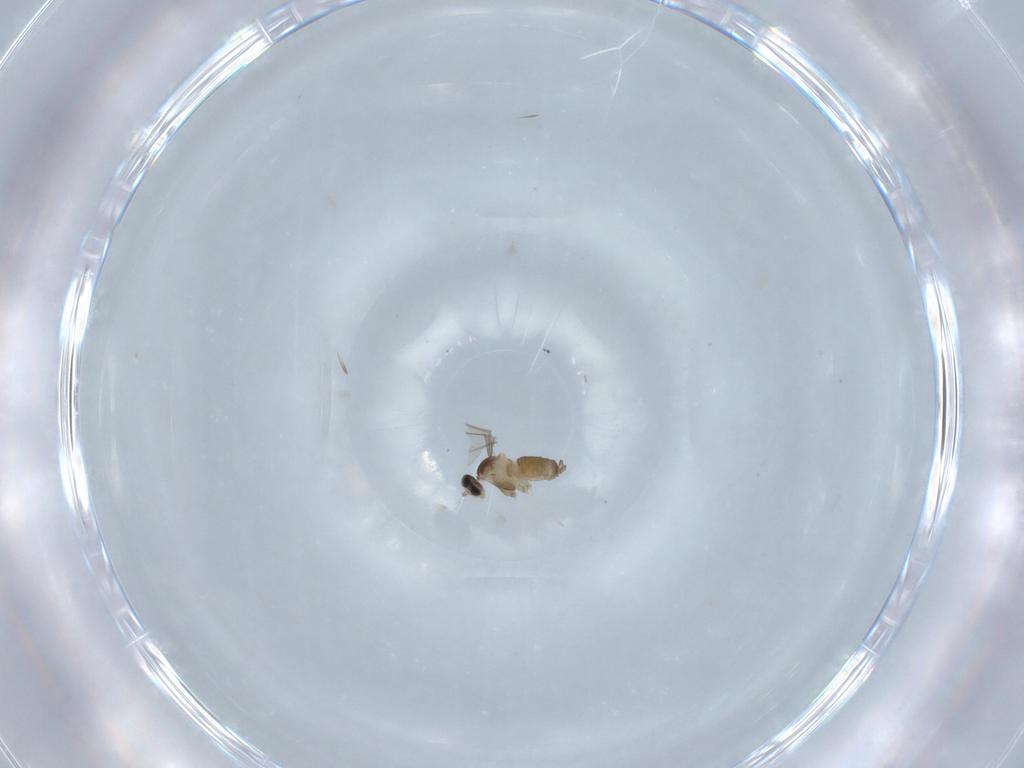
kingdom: Animalia
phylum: Arthropoda
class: Insecta
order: Diptera
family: Cecidomyiidae
